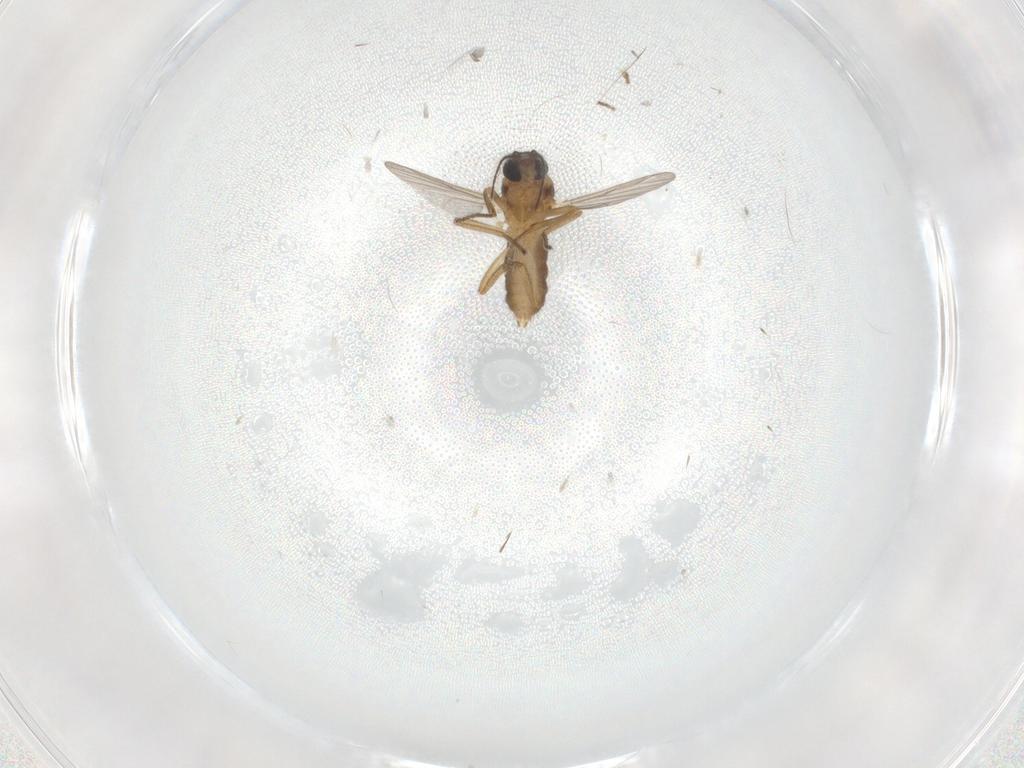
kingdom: Animalia
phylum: Arthropoda
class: Insecta
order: Diptera
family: Ceratopogonidae
